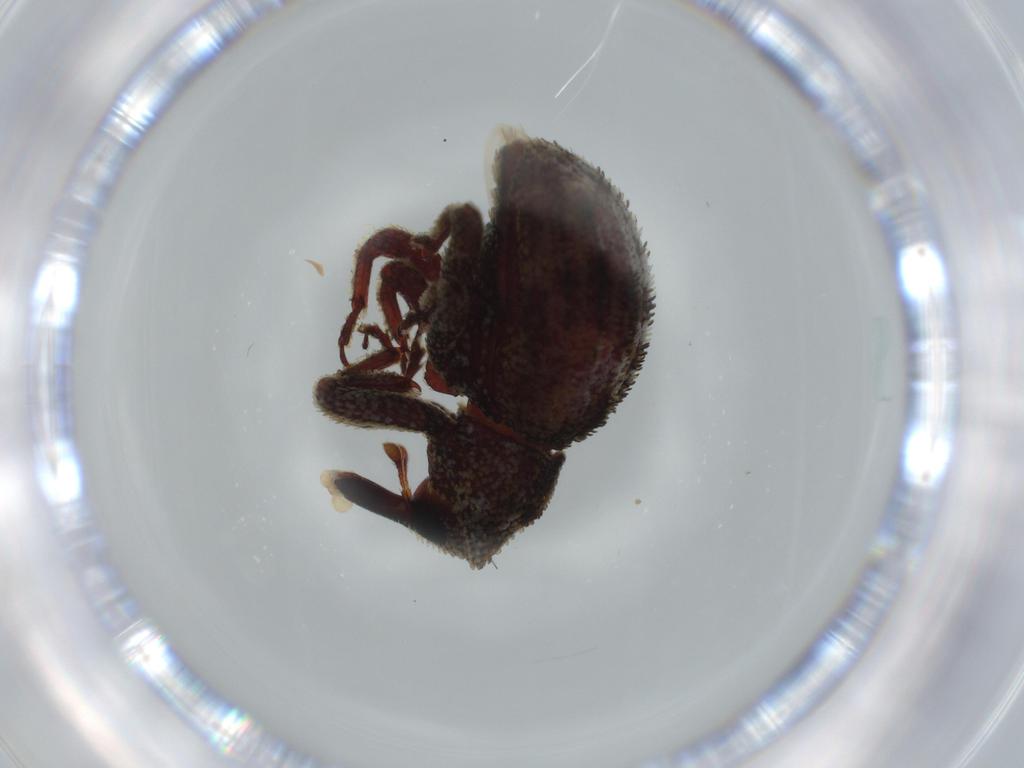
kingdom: Animalia
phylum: Arthropoda
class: Insecta
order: Coleoptera
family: Curculionidae
